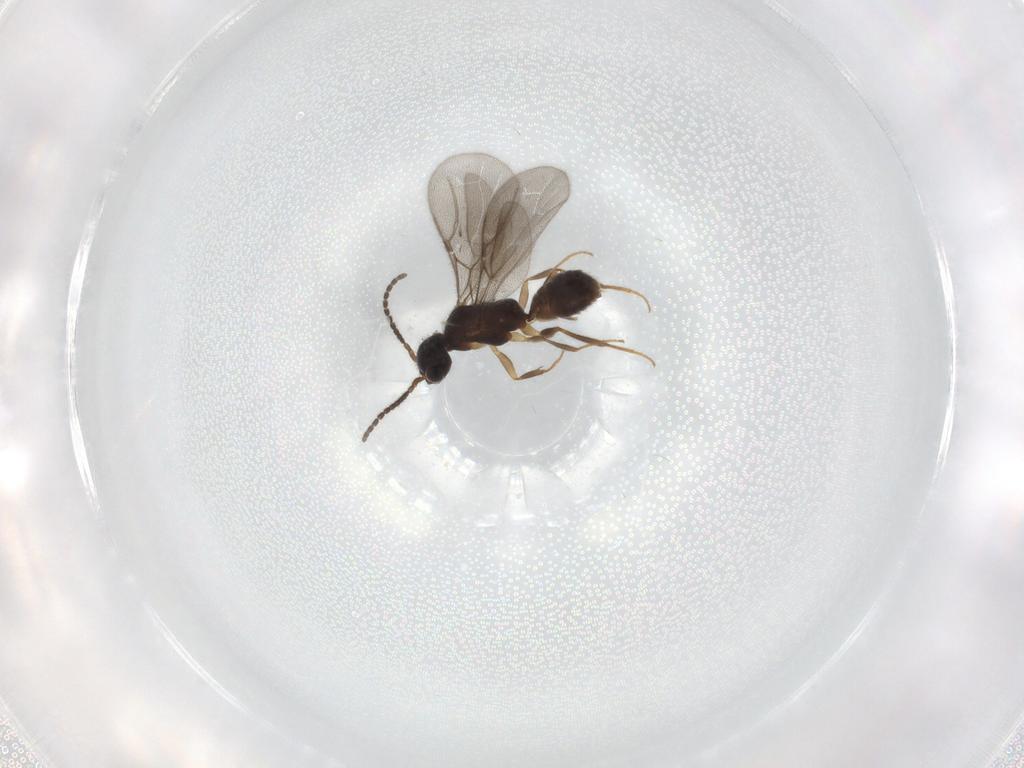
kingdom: Animalia
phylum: Arthropoda
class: Insecta
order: Hymenoptera
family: Bethylidae
